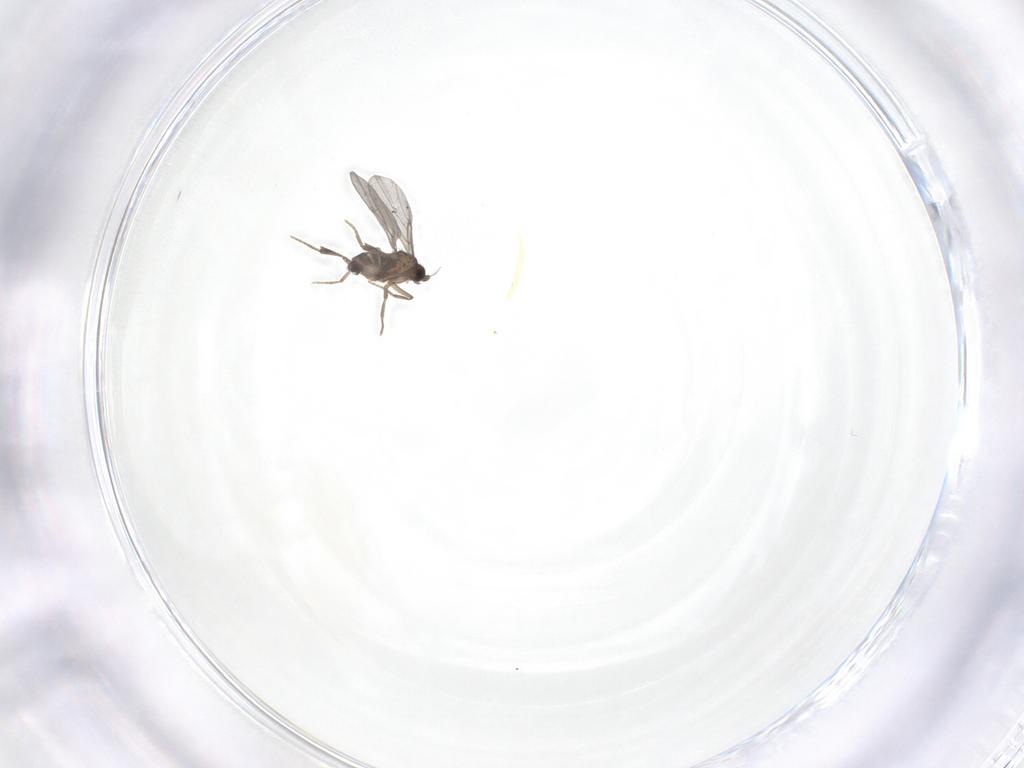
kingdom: Animalia
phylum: Arthropoda
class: Insecta
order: Diptera
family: Phoridae
